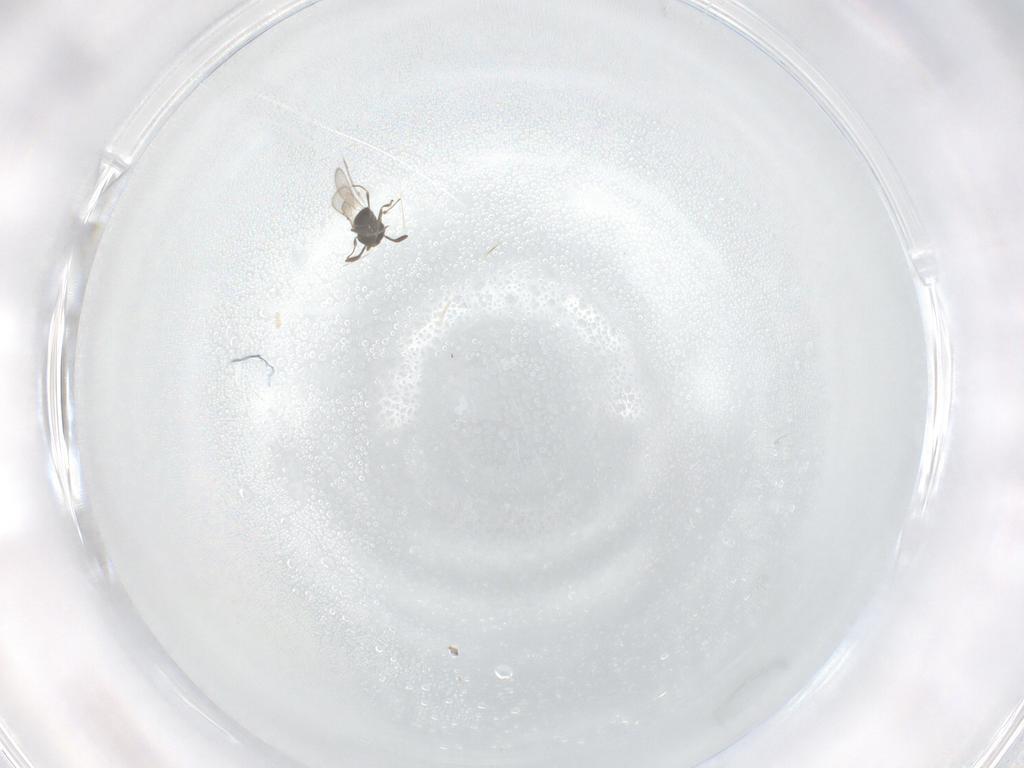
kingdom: Animalia
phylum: Arthropoda
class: Insecta
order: Hymenoptera
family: Scelionidae
